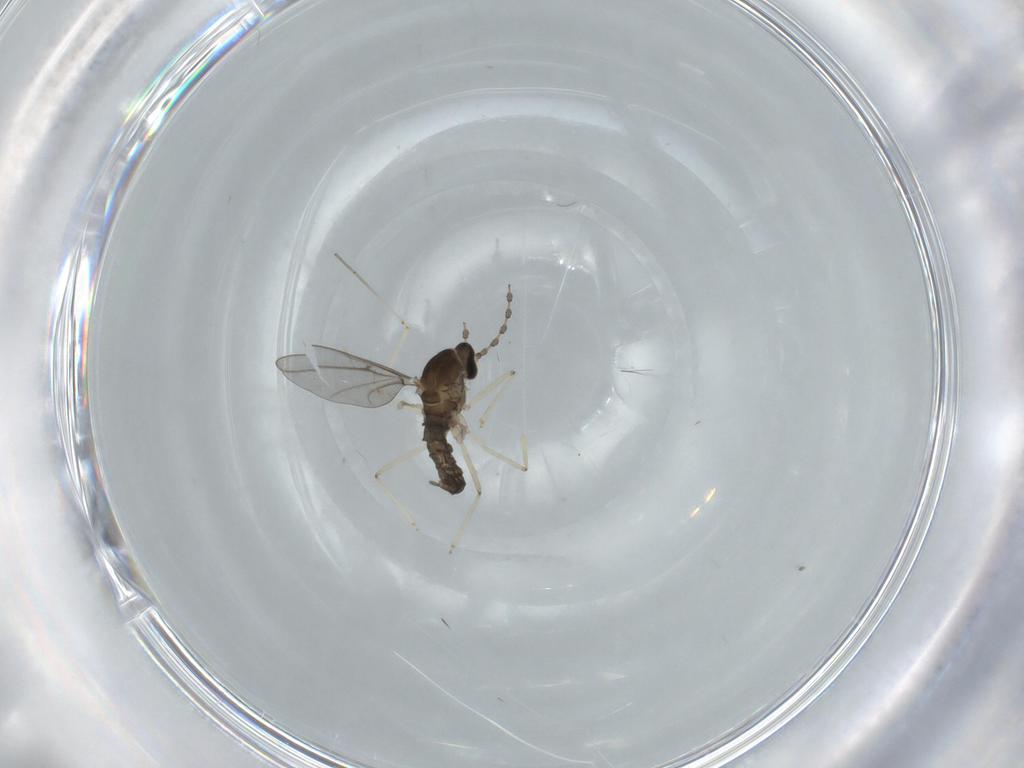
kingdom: Animalia
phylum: Arthropoda
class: Insecta
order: Diptera
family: Cecidomyiidae
